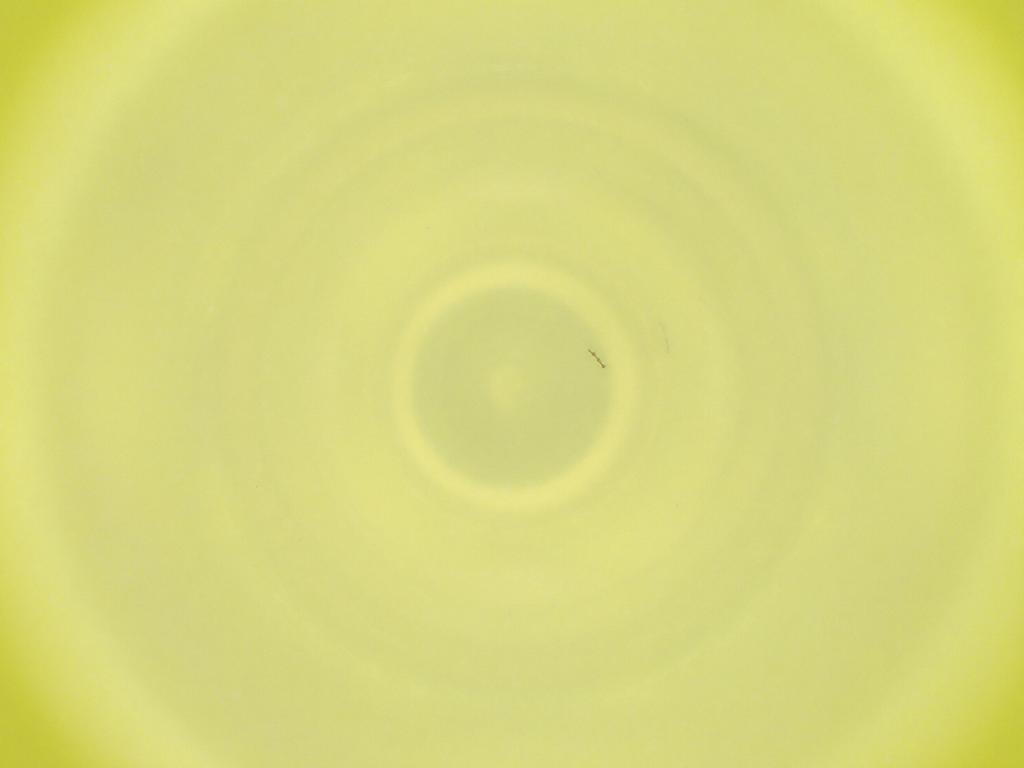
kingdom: Animalia
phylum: Arthropoda
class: Insecta
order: Diptera
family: Cecidomyiidae
